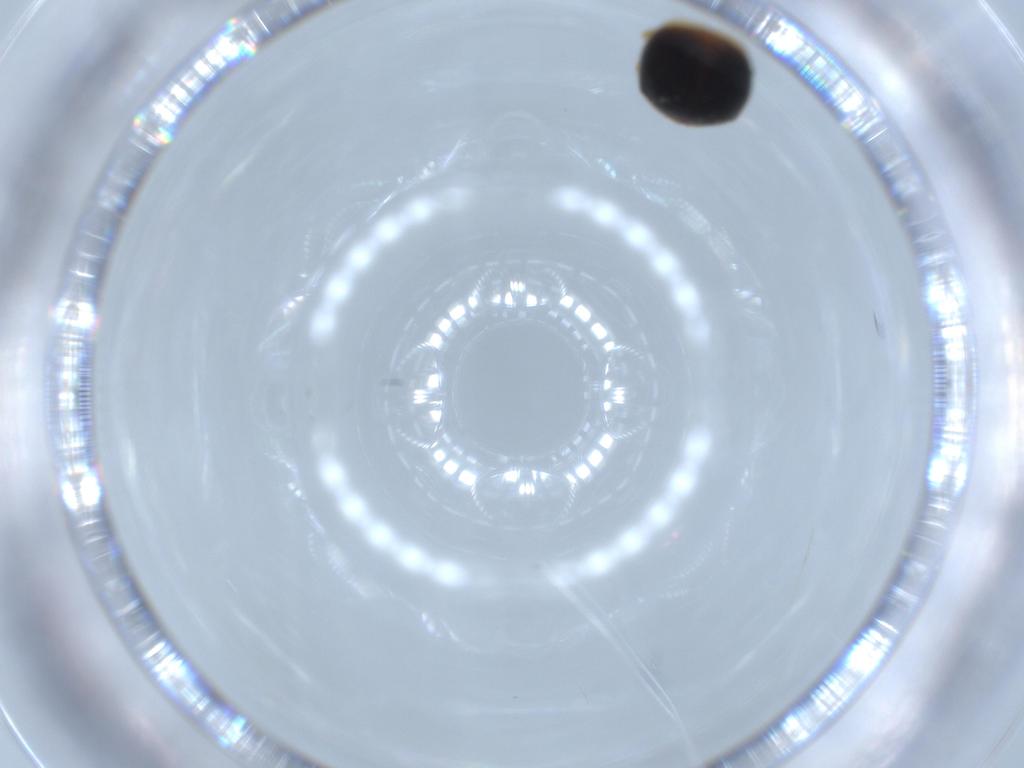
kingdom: Animalia
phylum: Arthropoda
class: Insecta
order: Coleoptera
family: Coccinellidae
